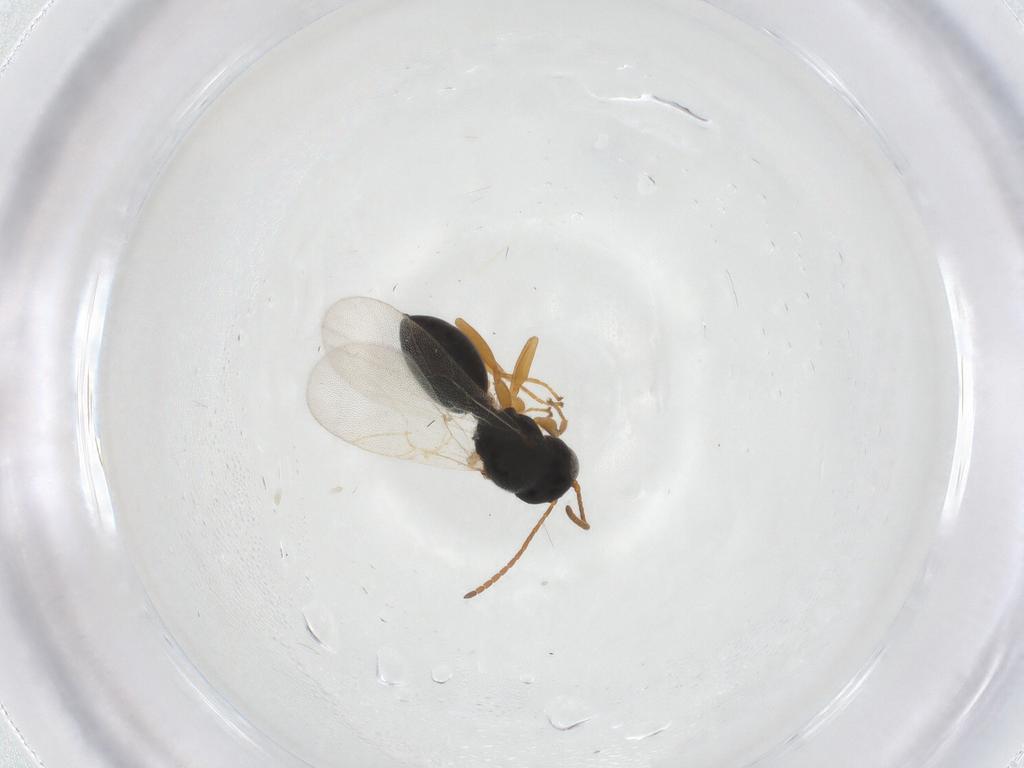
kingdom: Animalia
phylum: Arthropoda
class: Insecta
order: Hymenoptera
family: Cynipidae
